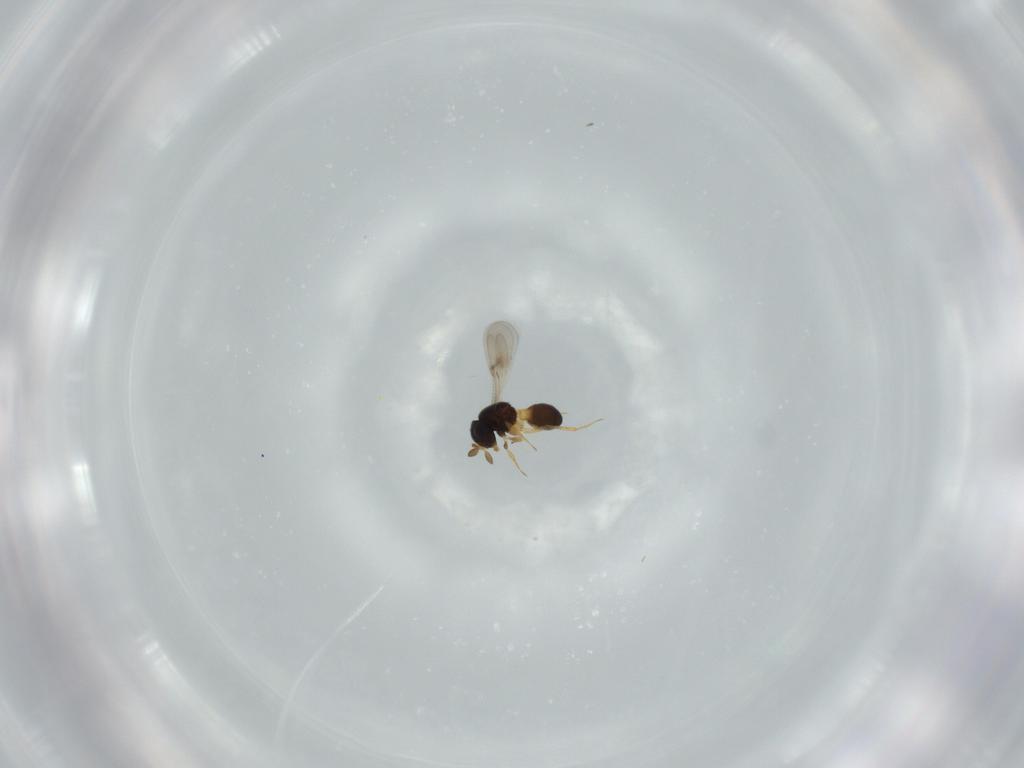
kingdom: Animalia
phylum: Arthropoda
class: Insecta
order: Hymenoptera
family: Scelionidae
